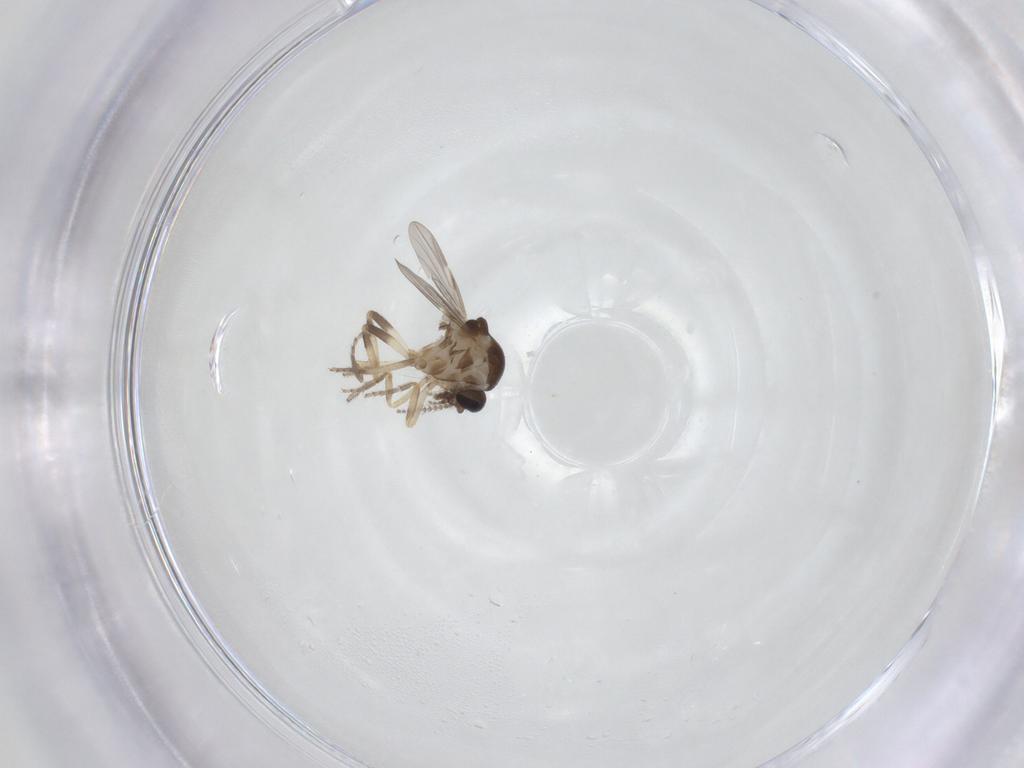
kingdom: Animalia
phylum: Arthropoda
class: Insecta
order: Diptera
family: Ceratopogonidae
